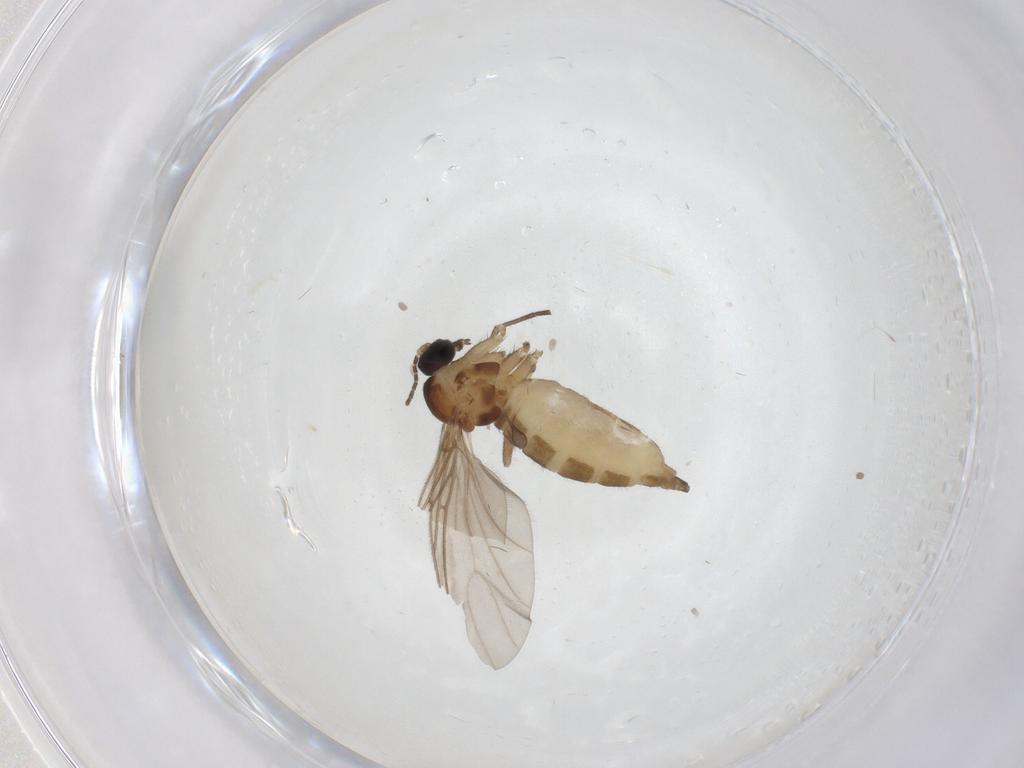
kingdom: Animalia
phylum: Arthropoda
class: Insecta
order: Diptera
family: Sciaridae
